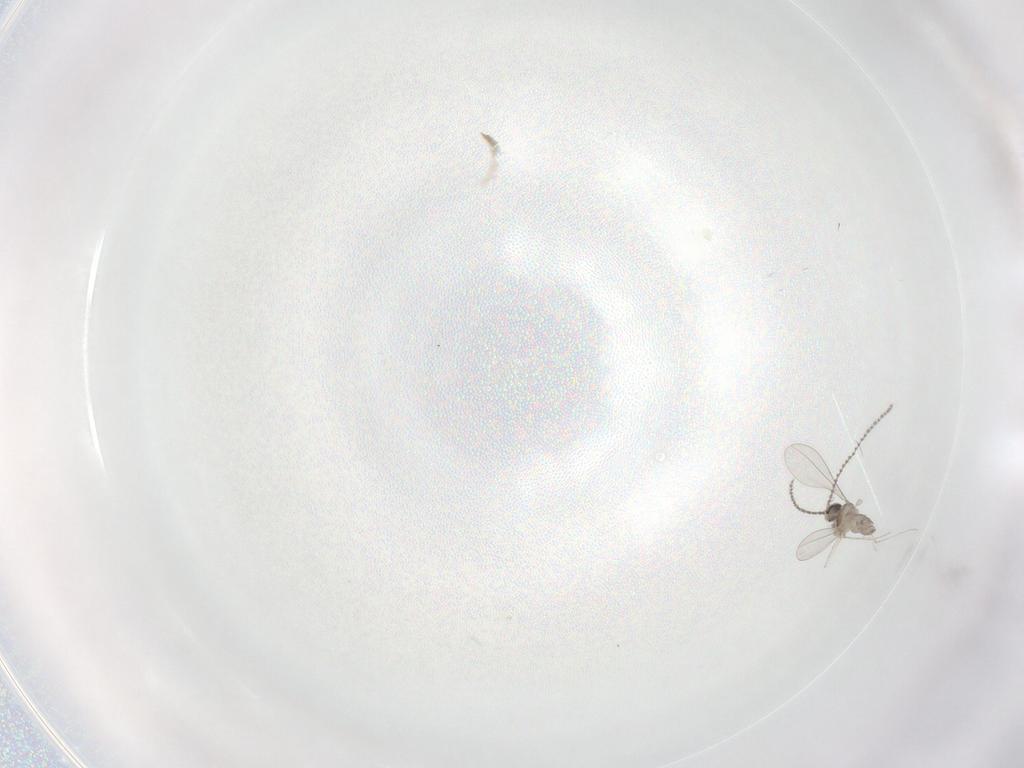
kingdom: Animalia
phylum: Arthropoda
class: Insecta
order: Diptera
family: Cecidomyiidae
